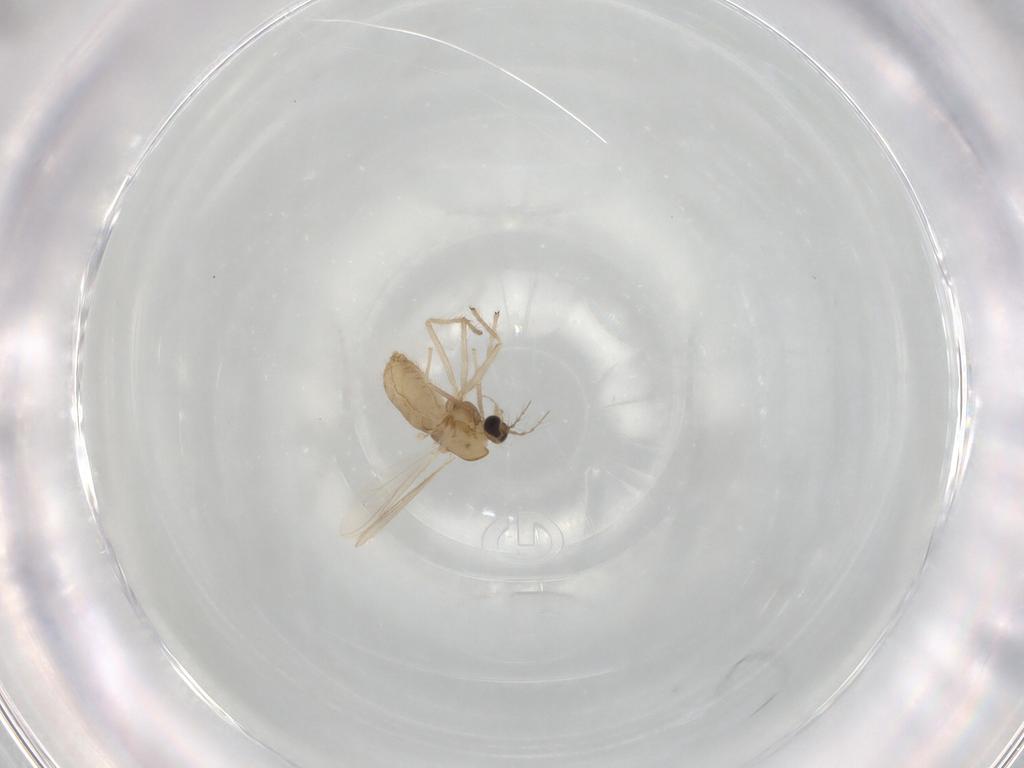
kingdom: Animalia
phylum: Arthropoda
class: Insecta
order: Diptera
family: Chironomidae
